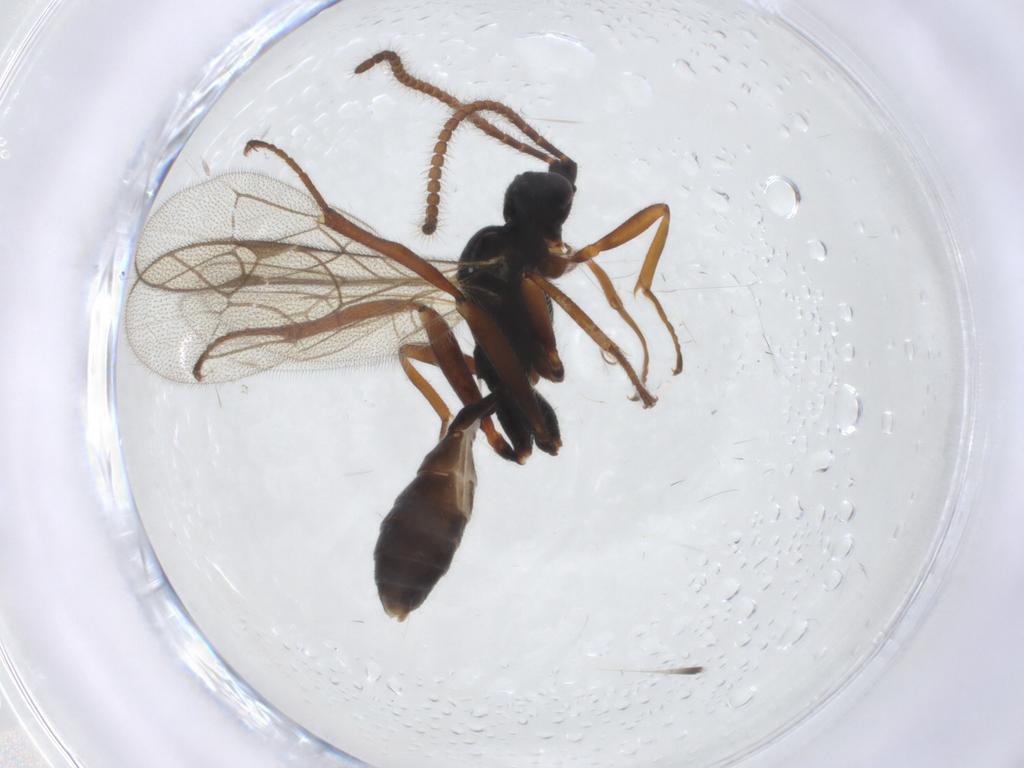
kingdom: Animalia
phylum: Arthropoda
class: Insecta
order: Hymenoptera
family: Ichneumonidae
